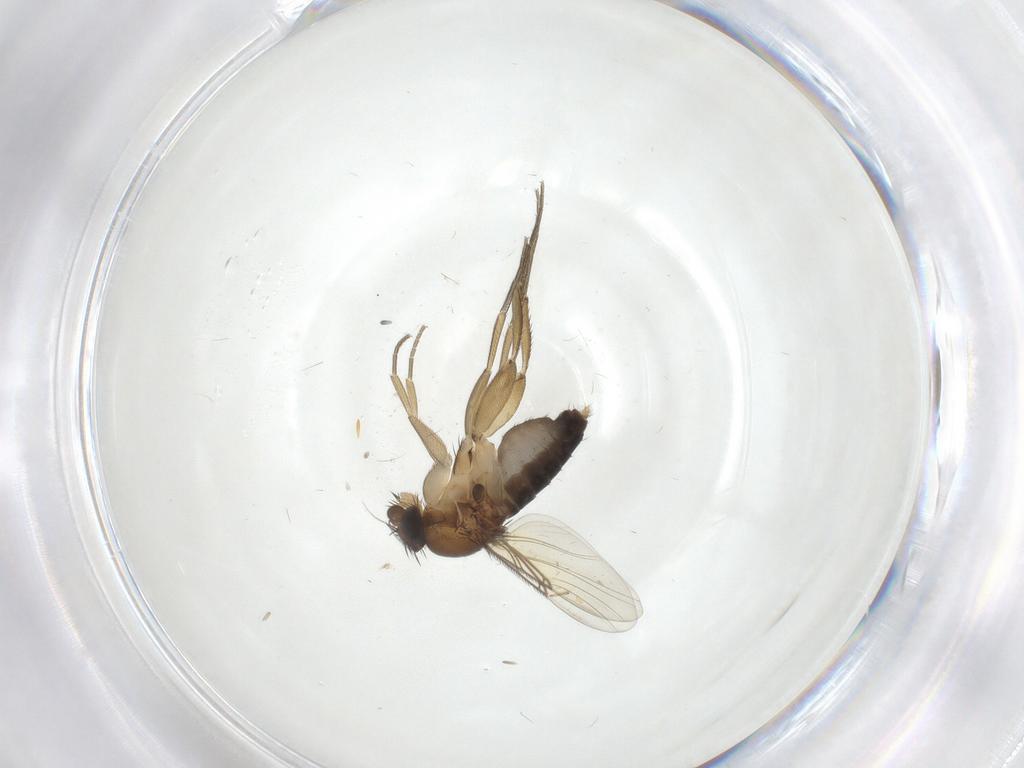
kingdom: Animalia
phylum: Arthropoda
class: Insecta
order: Diptera
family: Phoridae
